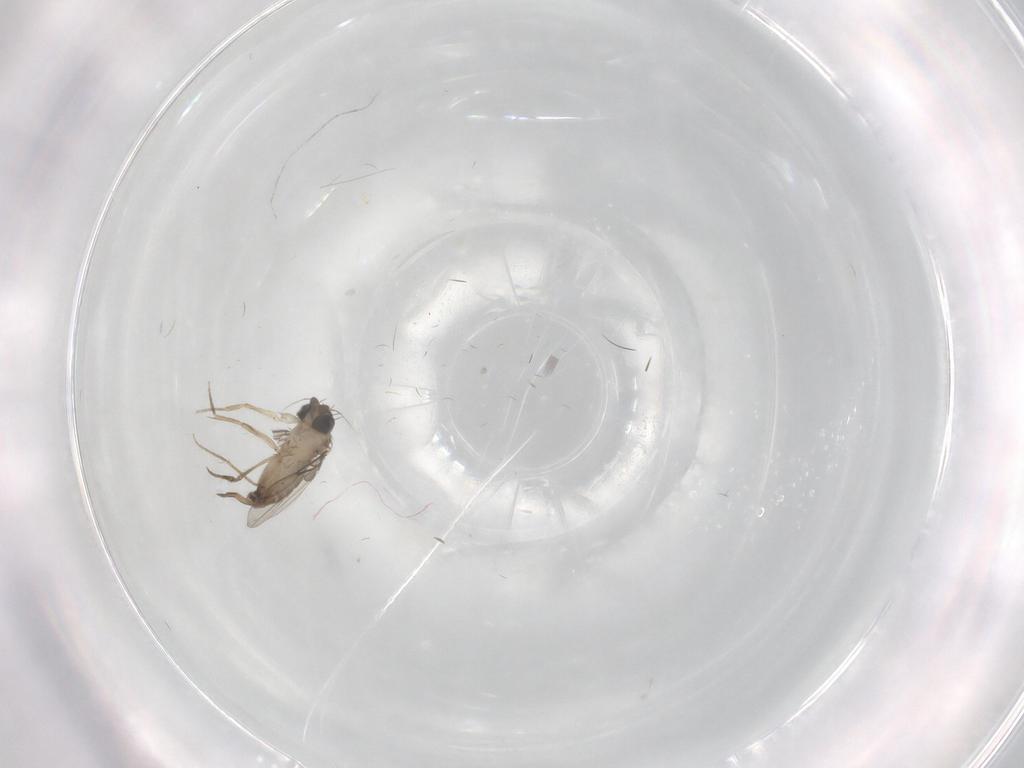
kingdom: Animalia
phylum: Arthropoda
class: Insecta
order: Diptera
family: Phoridae
